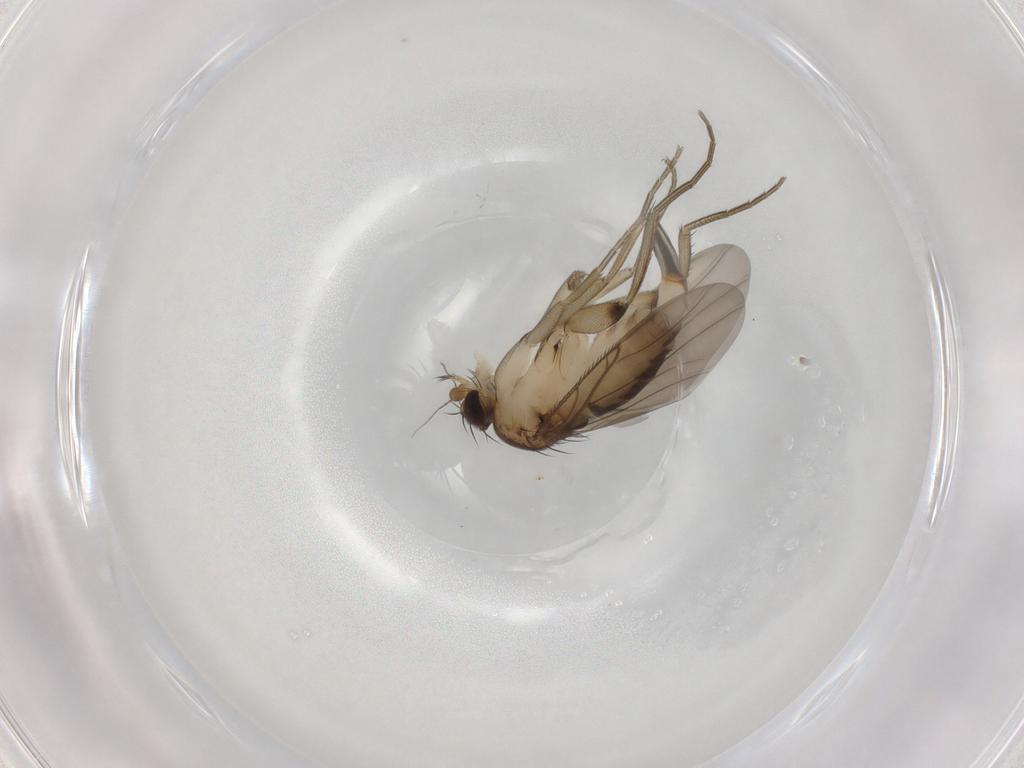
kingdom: Animalia
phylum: Arthropoda
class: Insecta
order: Diptera
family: Phoridae
